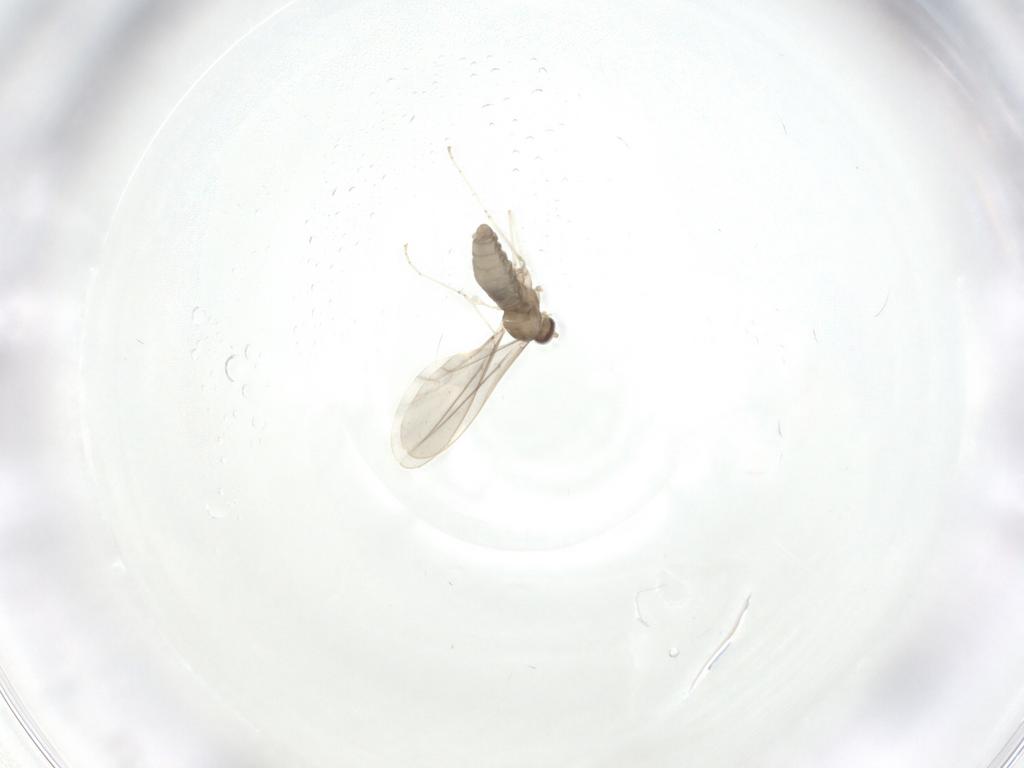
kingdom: Animalia
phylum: Arthropoda
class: Insecta
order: Diptera
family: Cecidomyiidae
